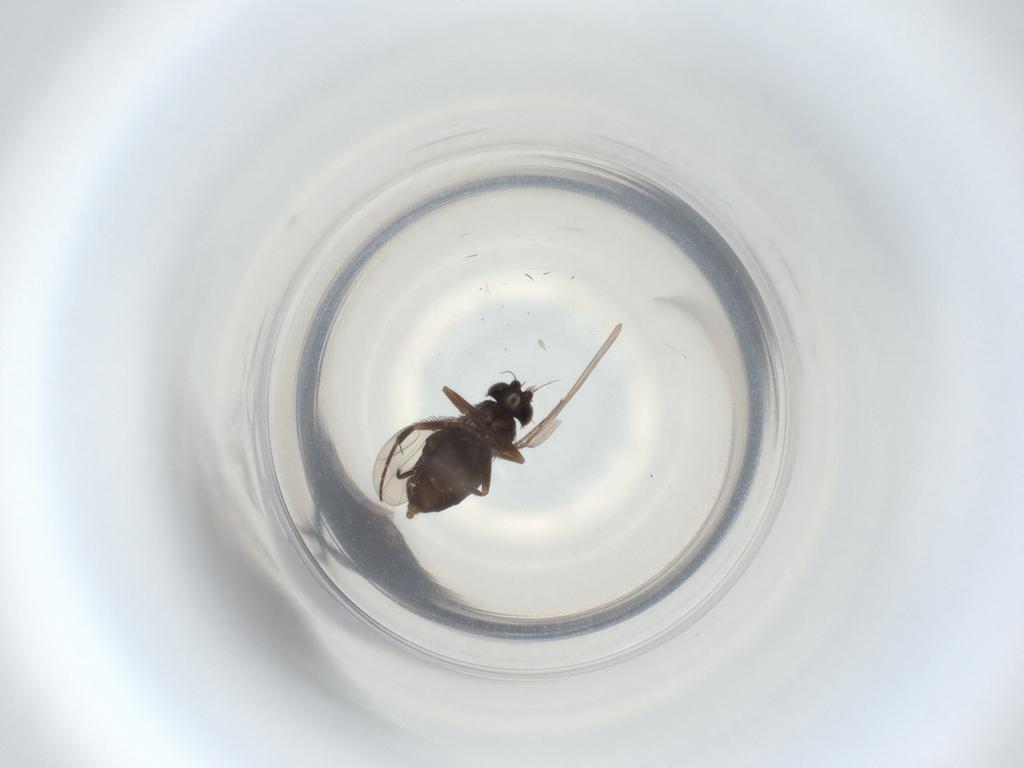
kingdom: Animalia
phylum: Arthropoda
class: Insecta
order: Diptera
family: Phoridae
